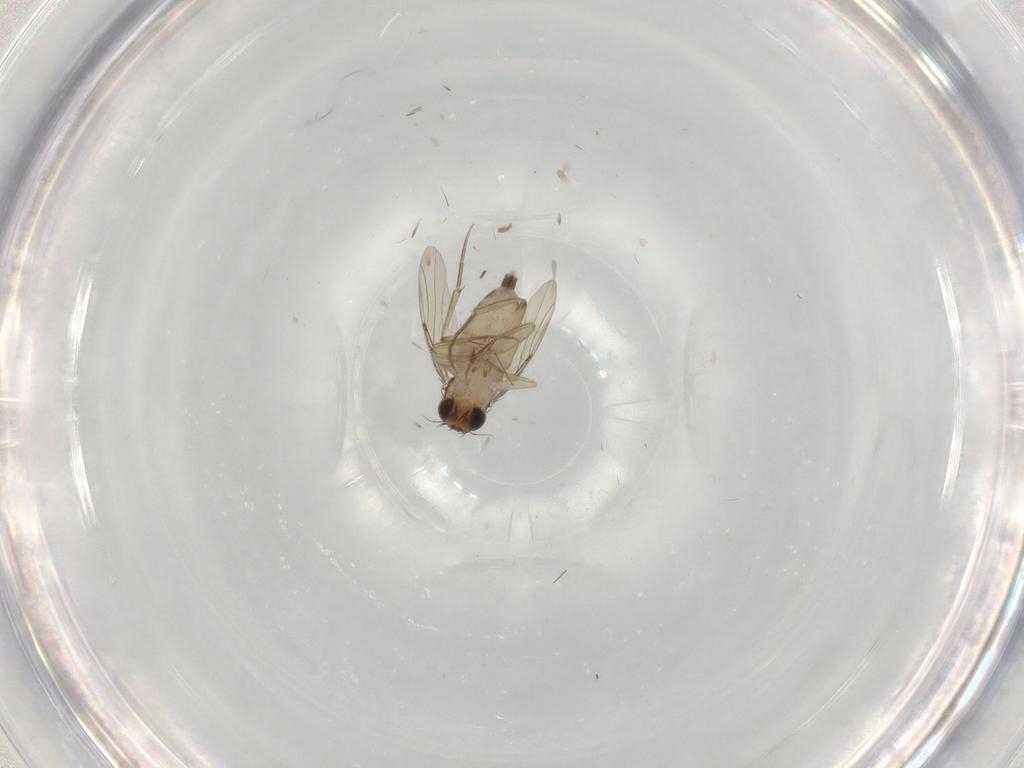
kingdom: Animalia
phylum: Arthropoda
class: Insecta
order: Diptera
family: Phoridae
